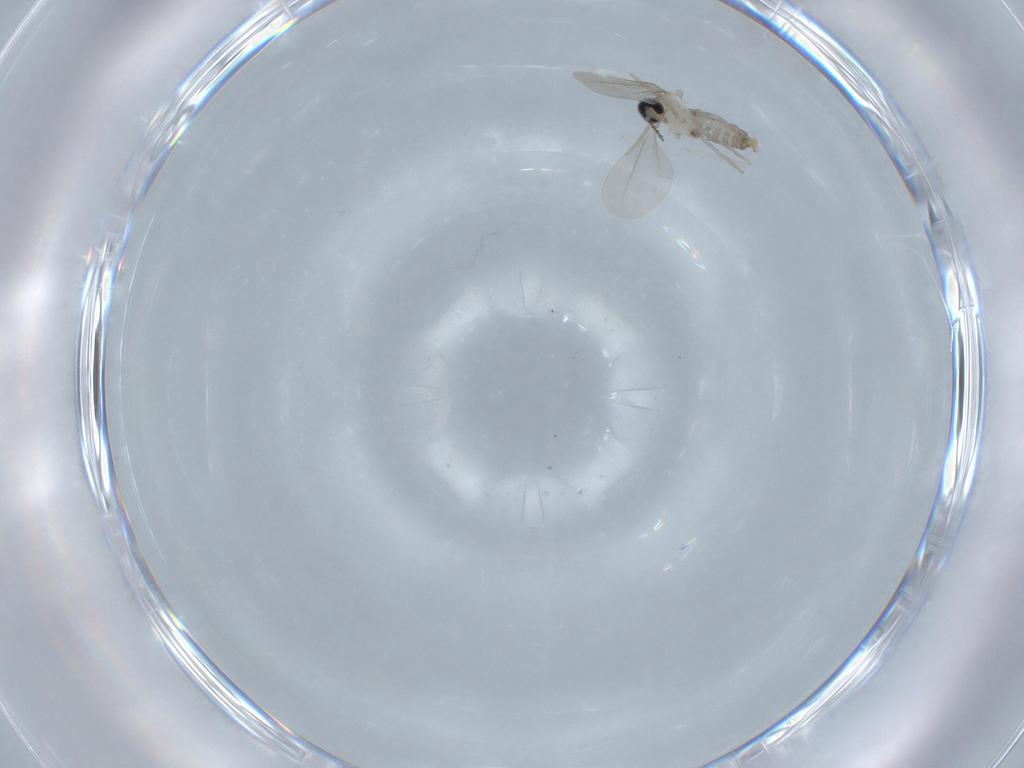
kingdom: Animalia
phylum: Arthropoda
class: Insecta
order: Diptera
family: Cecidomyiidae
